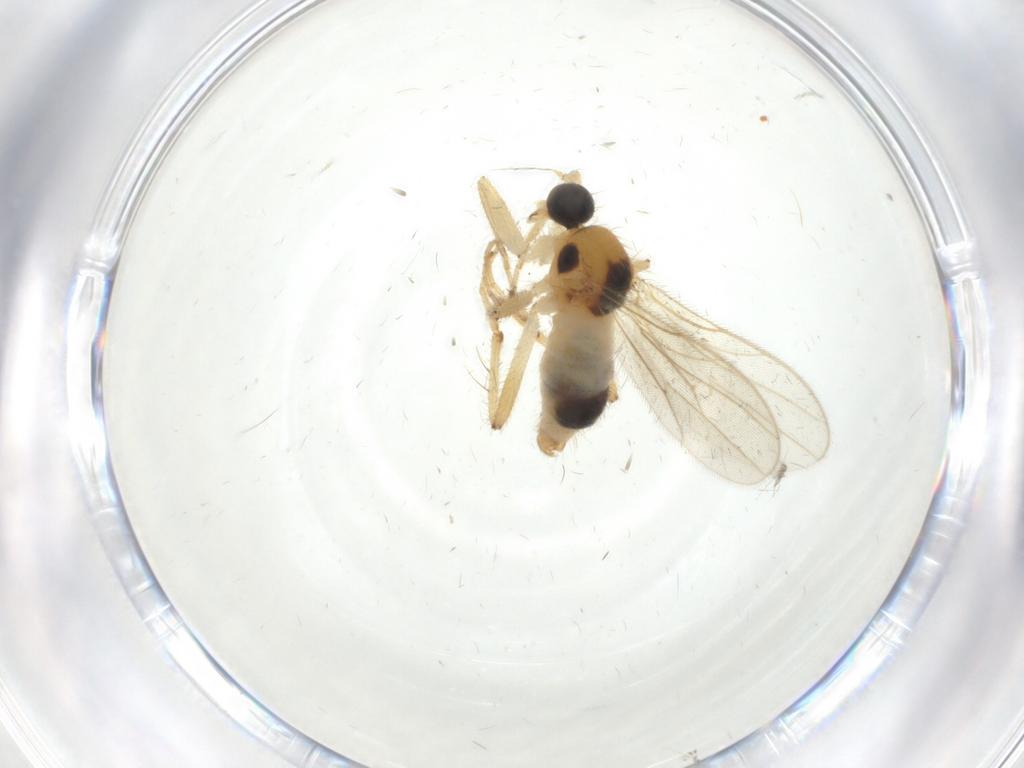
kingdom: Animalia
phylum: Arthropoda
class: Insecta
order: Diptera
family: Hybotidae
